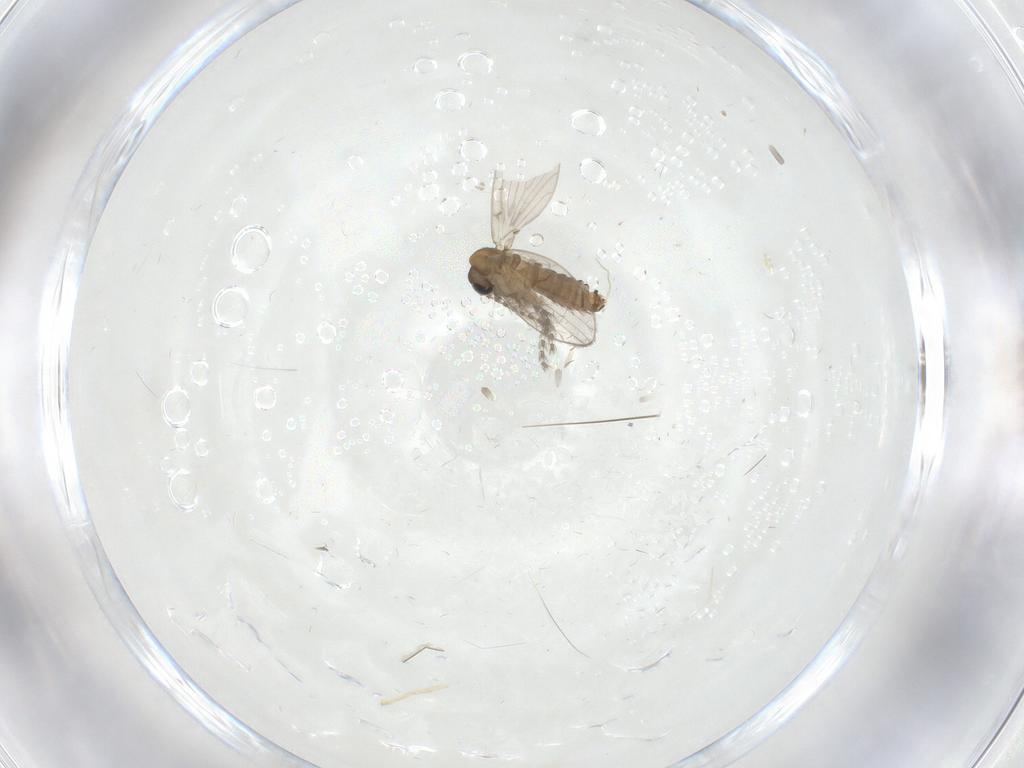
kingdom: Animalia
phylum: Arthropoda
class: Insecta
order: Diptera
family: Psychodidae
